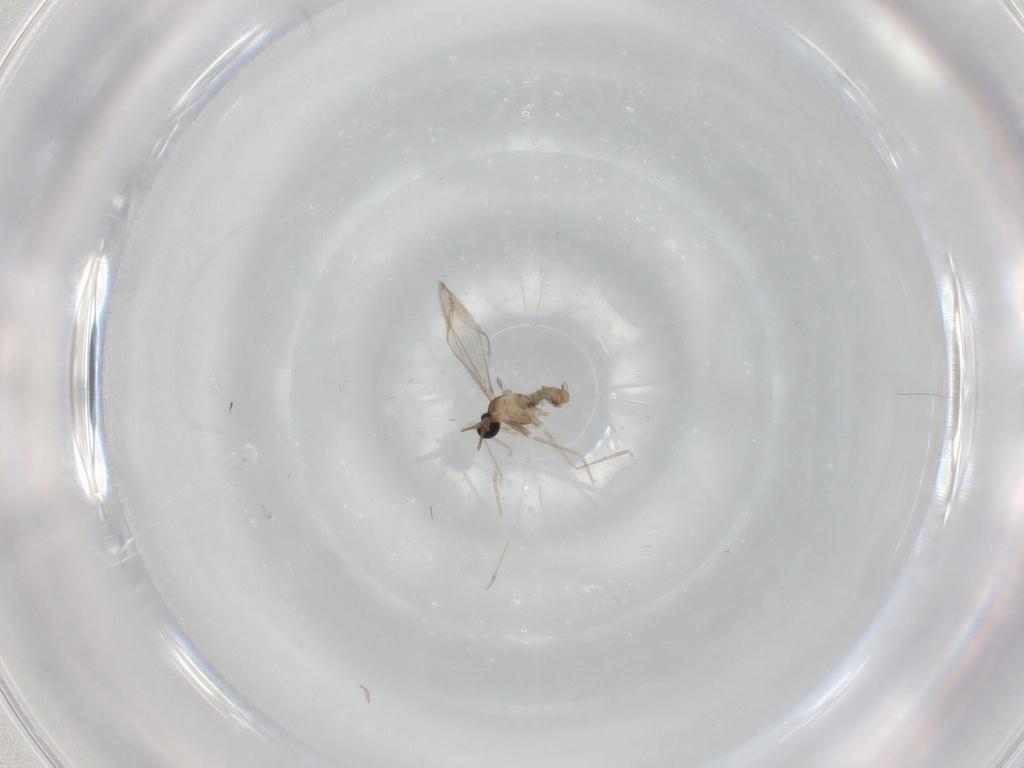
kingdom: Animalia
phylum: Arthropoda
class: Insecta
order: Diptera
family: Cecidomyiidae
